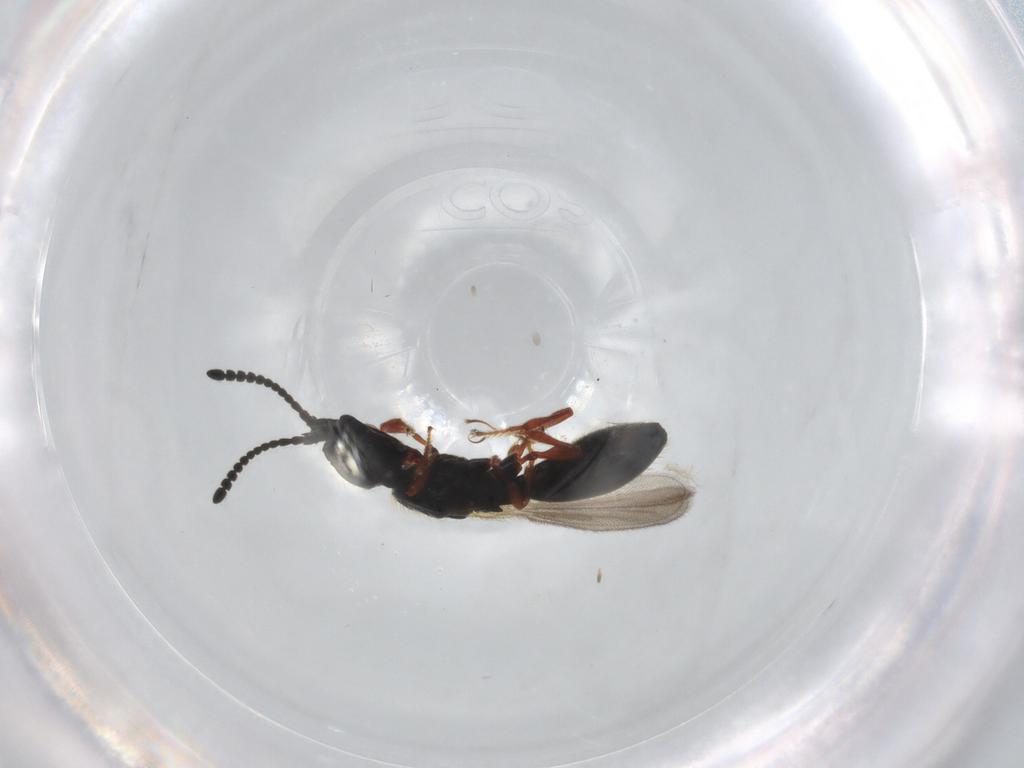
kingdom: Animalia
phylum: Arthropoda
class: Insecta
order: Hymenoptera
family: Diapriidae
